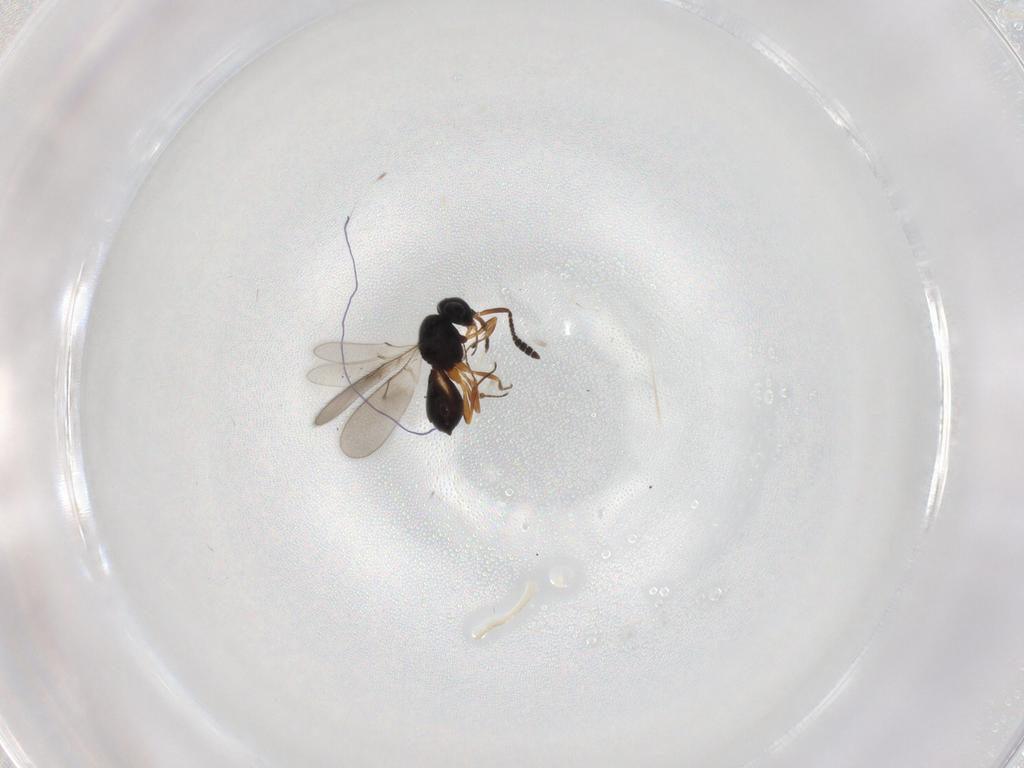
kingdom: Animalia
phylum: Arthropoda
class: Insecta
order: Hymenoptera
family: Scelionidae
